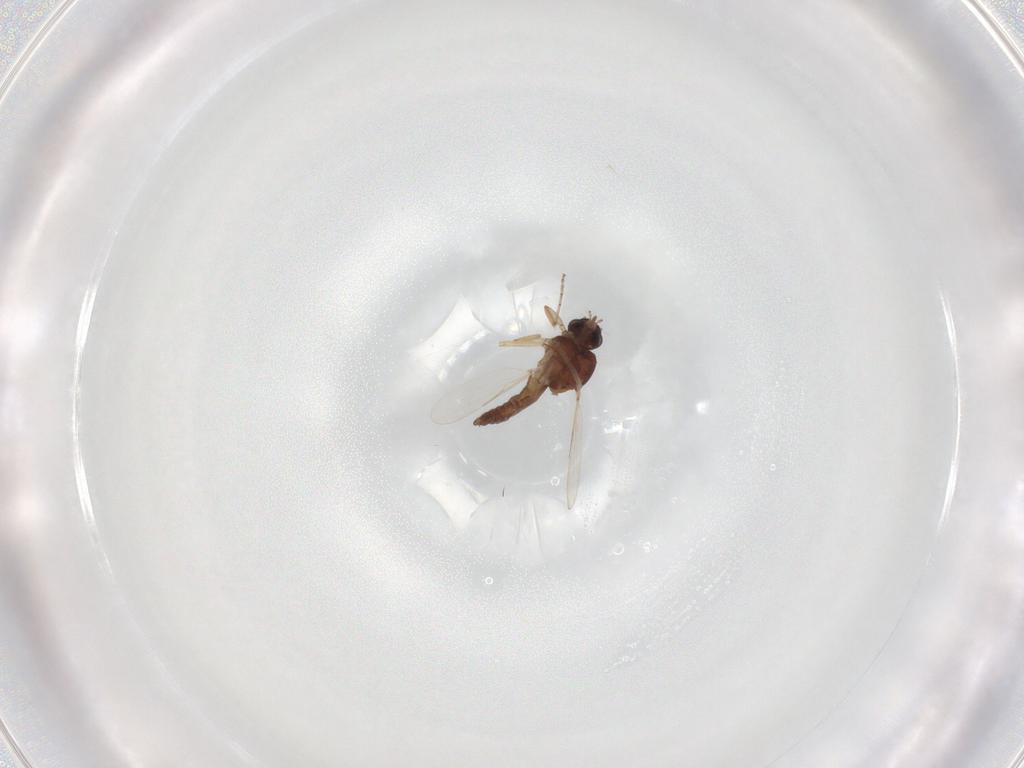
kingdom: Animalia
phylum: Arthropoda
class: Insecta
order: Diptera
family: Ceratopogonidae
